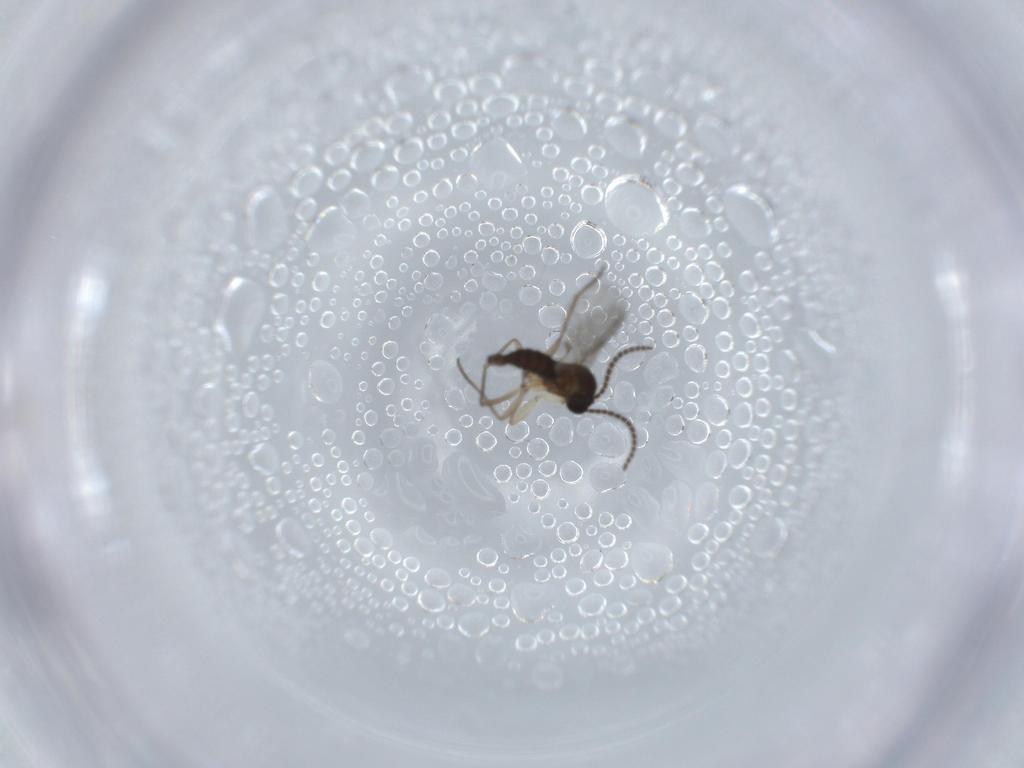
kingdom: Animalia
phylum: Arthropoda
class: Insecta
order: Diptera
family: Sciaridae
